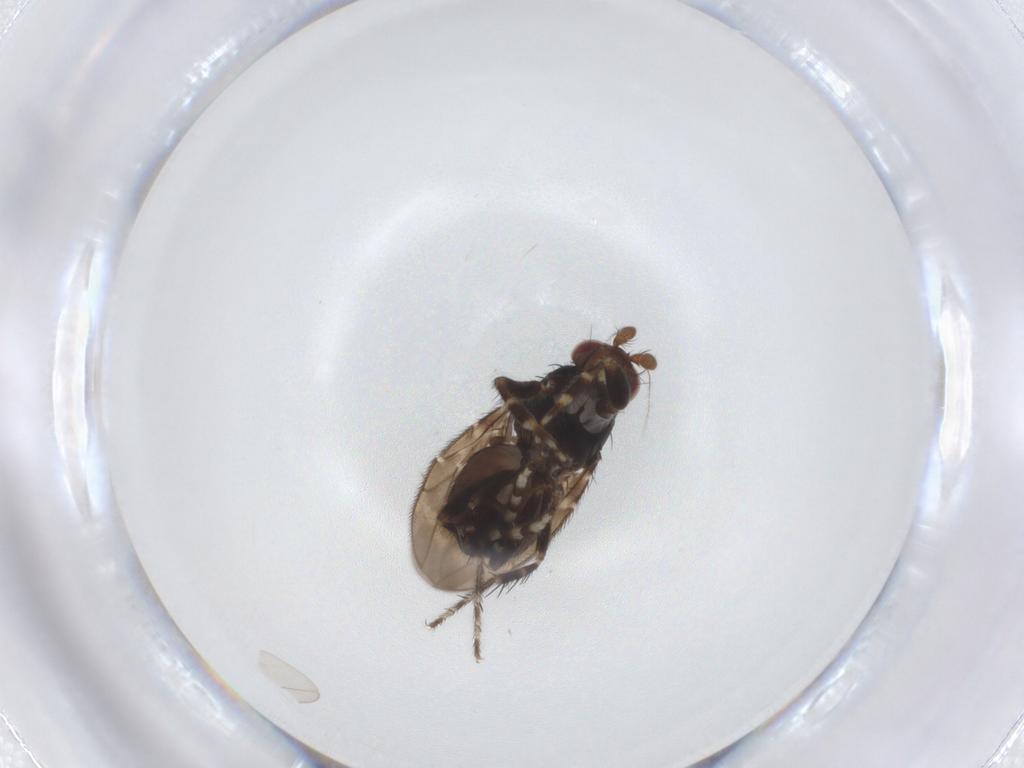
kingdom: Animalia
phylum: Arthropoda
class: Insecta
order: Diptera
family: Sphaeroceridae
